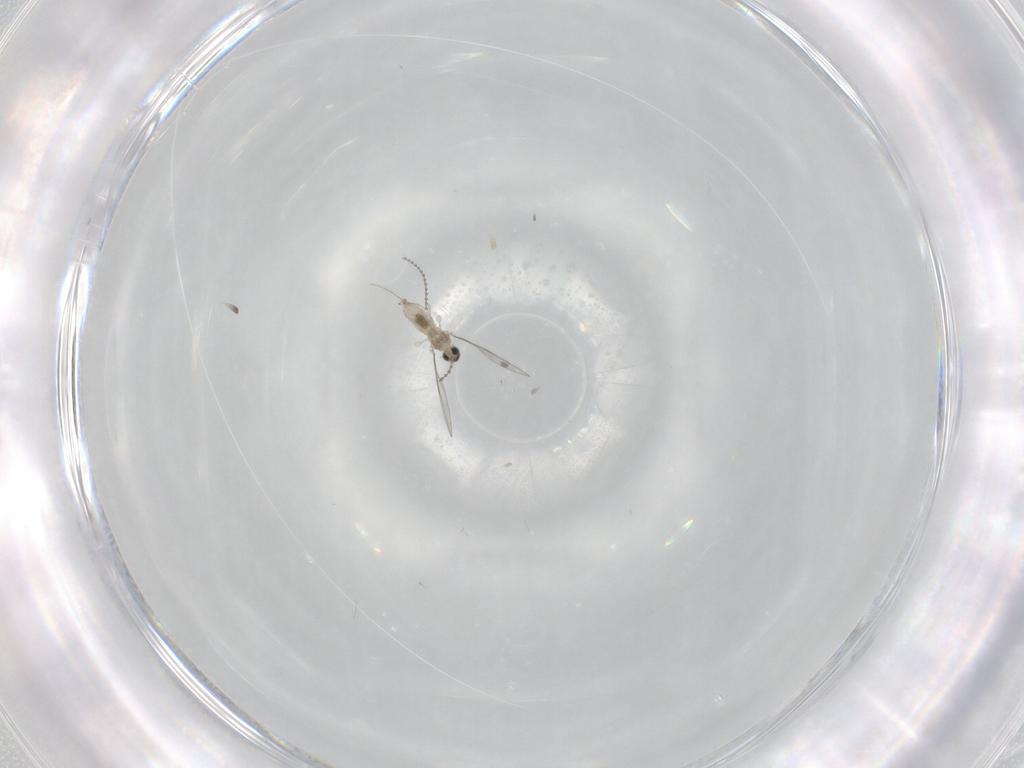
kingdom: Animalia
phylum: Arthropoda
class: Insecta
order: Diptera
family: Cecidomyiidae
